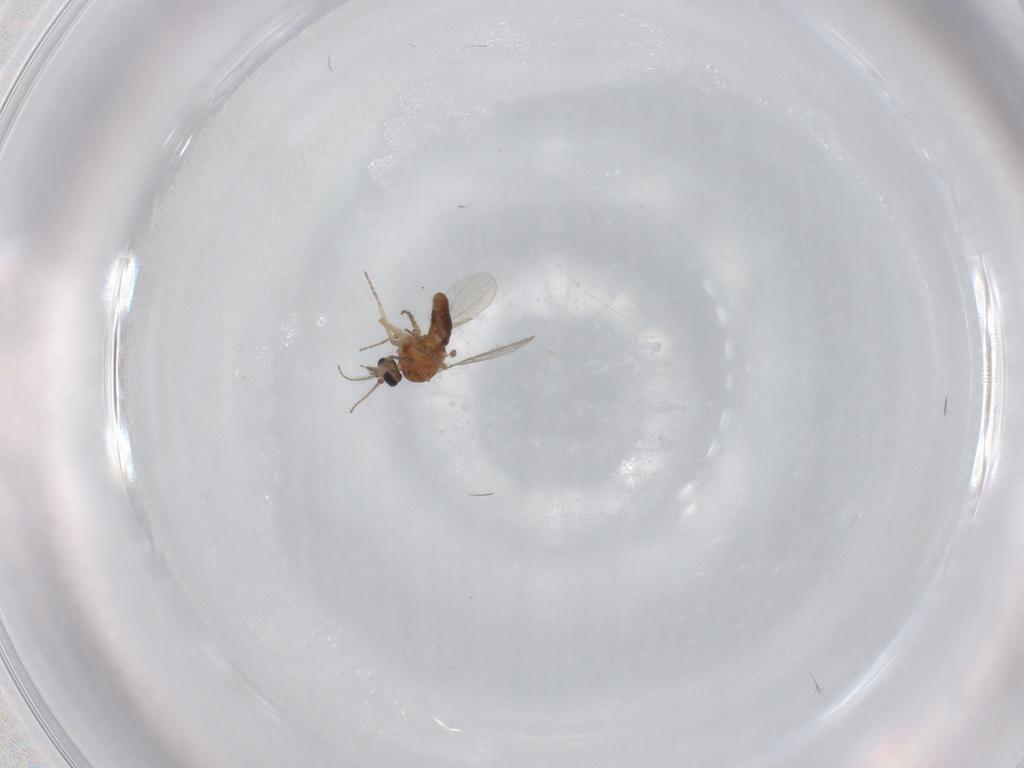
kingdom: Animalia
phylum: Arthropoda
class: Insecta
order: Diptera
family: Ceratopogonidae
